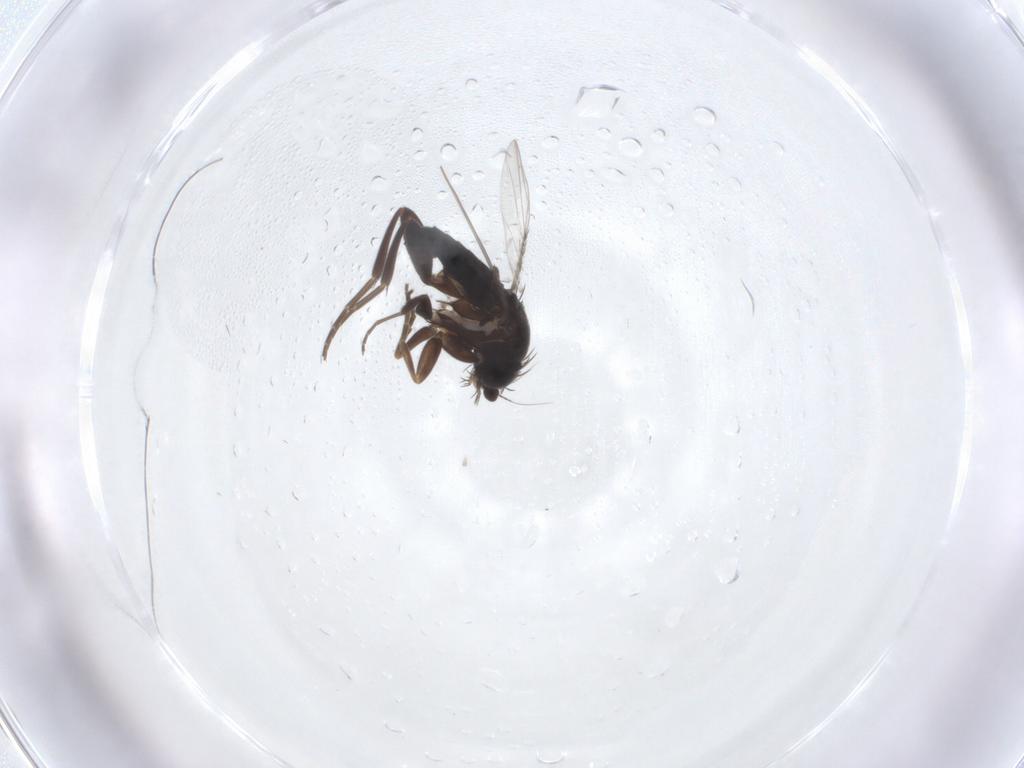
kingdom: Animalia
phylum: Arthropoda
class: Insecta
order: Diptera
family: Phoridae
